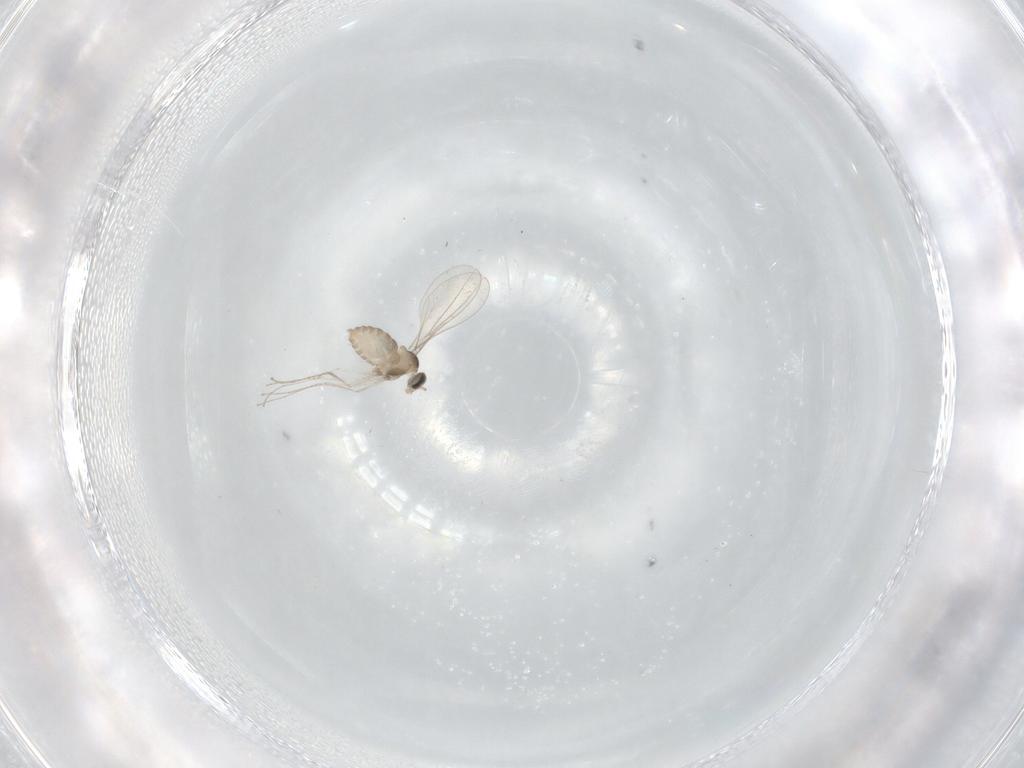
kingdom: Animalia
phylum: Arthropoda
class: Insecta
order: Diptera
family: Cecidomyiidae
